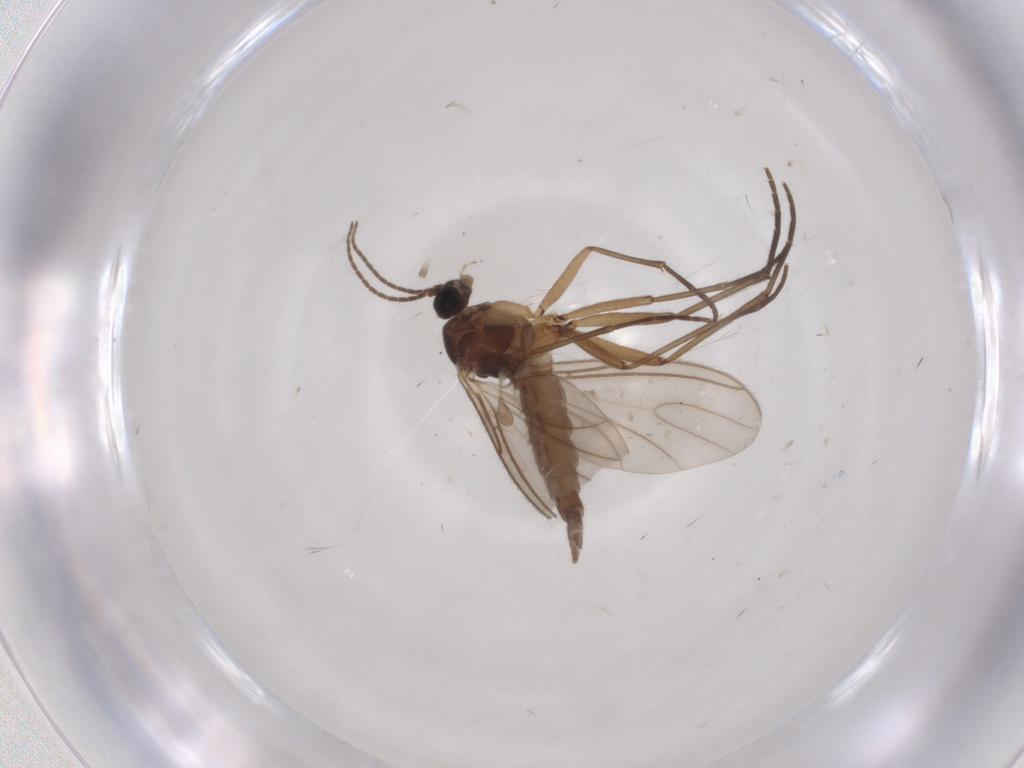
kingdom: Animalia
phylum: Arthropoda
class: Insecta
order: Diptera
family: Sciaridae
